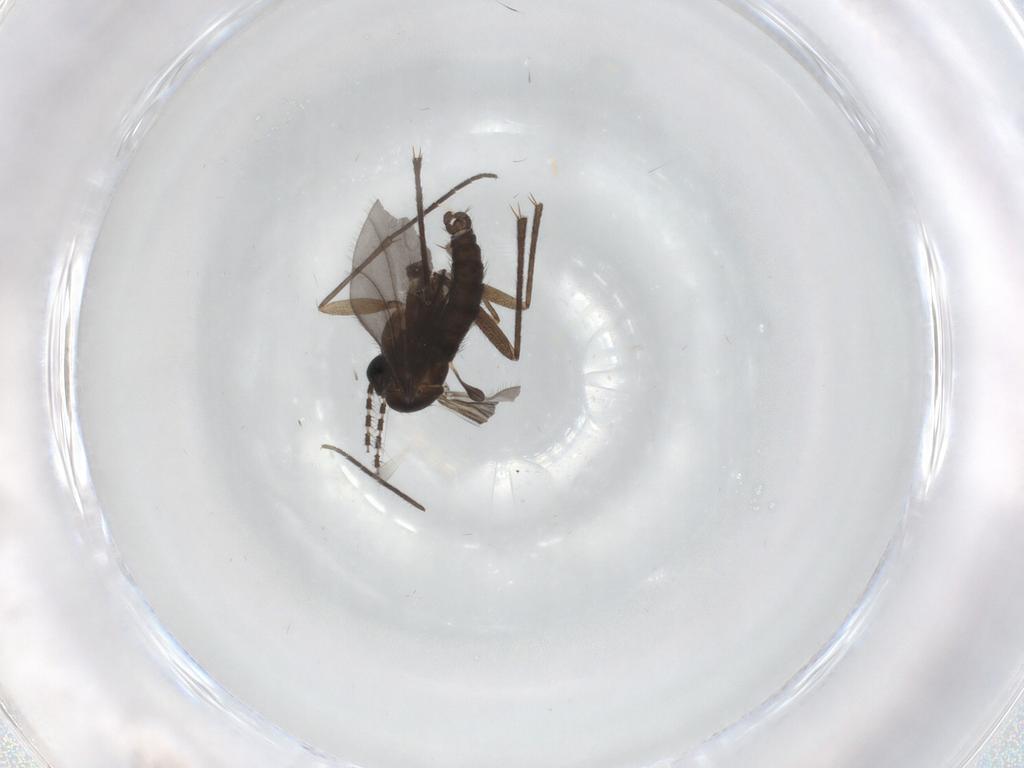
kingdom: Animalia
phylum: Arthropoda
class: Insecta
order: Diptera
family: Sciaridae
